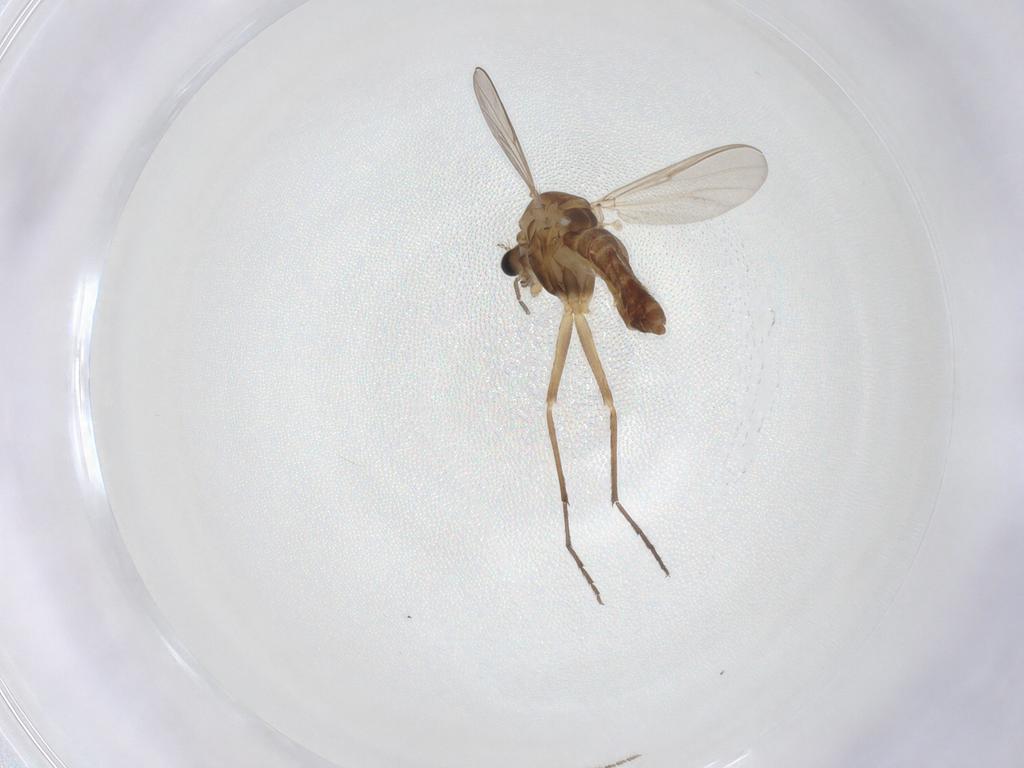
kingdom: Animalia
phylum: Arthropoda
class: Insecta
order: Diptera
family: Chironomidae
